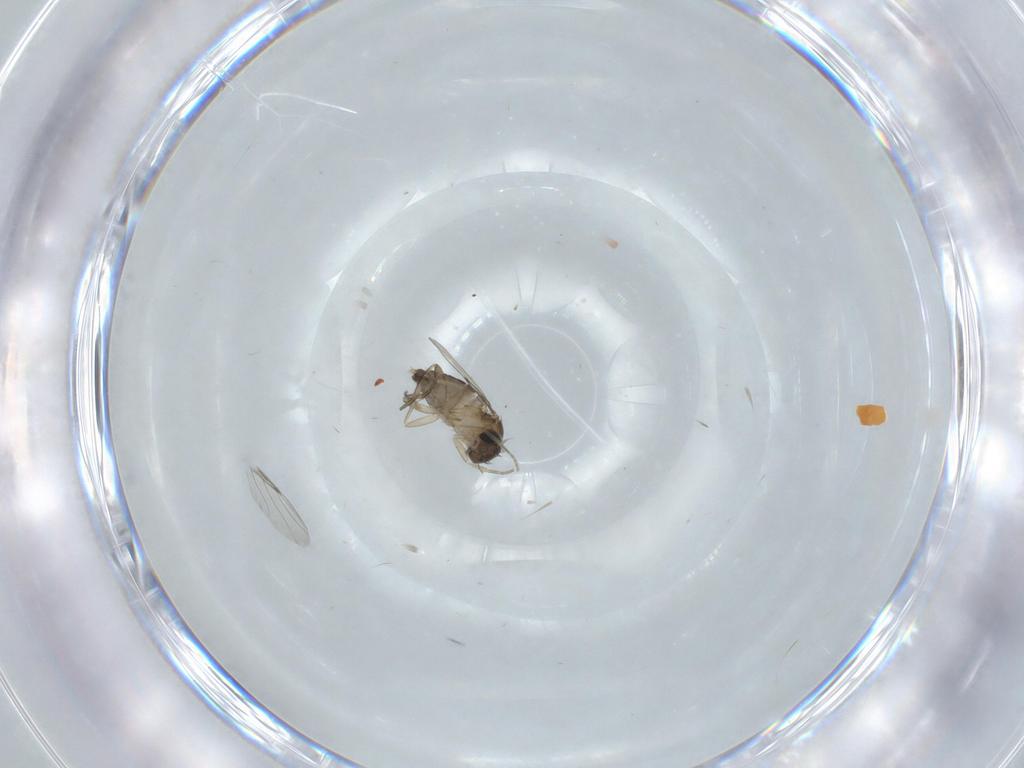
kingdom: Animalia
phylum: Arthropoda
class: Insecta
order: Diptera
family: Phoridae
